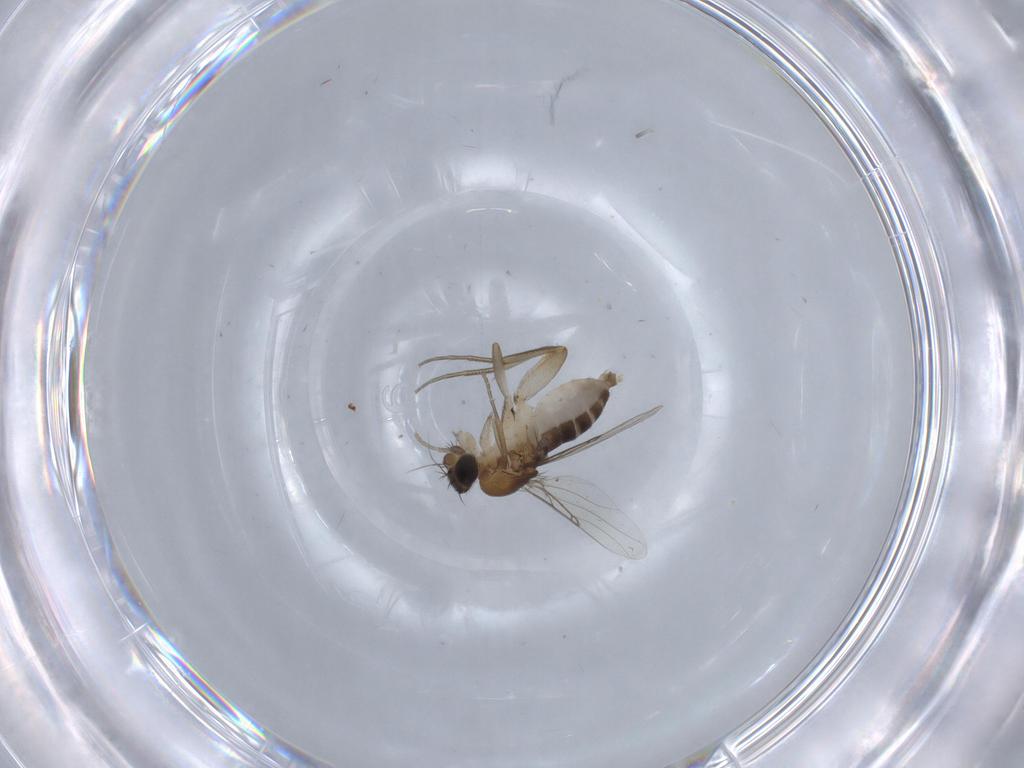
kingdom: Animalia
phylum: Arthropoda
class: Insecta
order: Diptera
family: Phoridae
